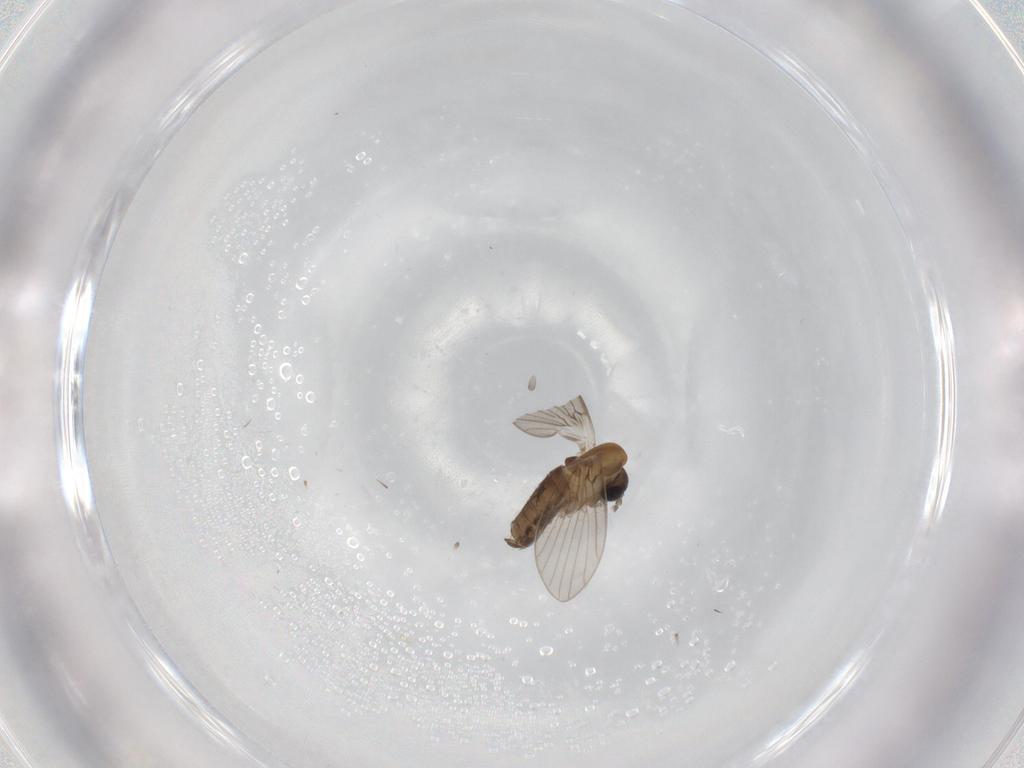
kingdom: Animalia
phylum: Arthropoda
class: Insecta
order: Diptera
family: Psychodidae
